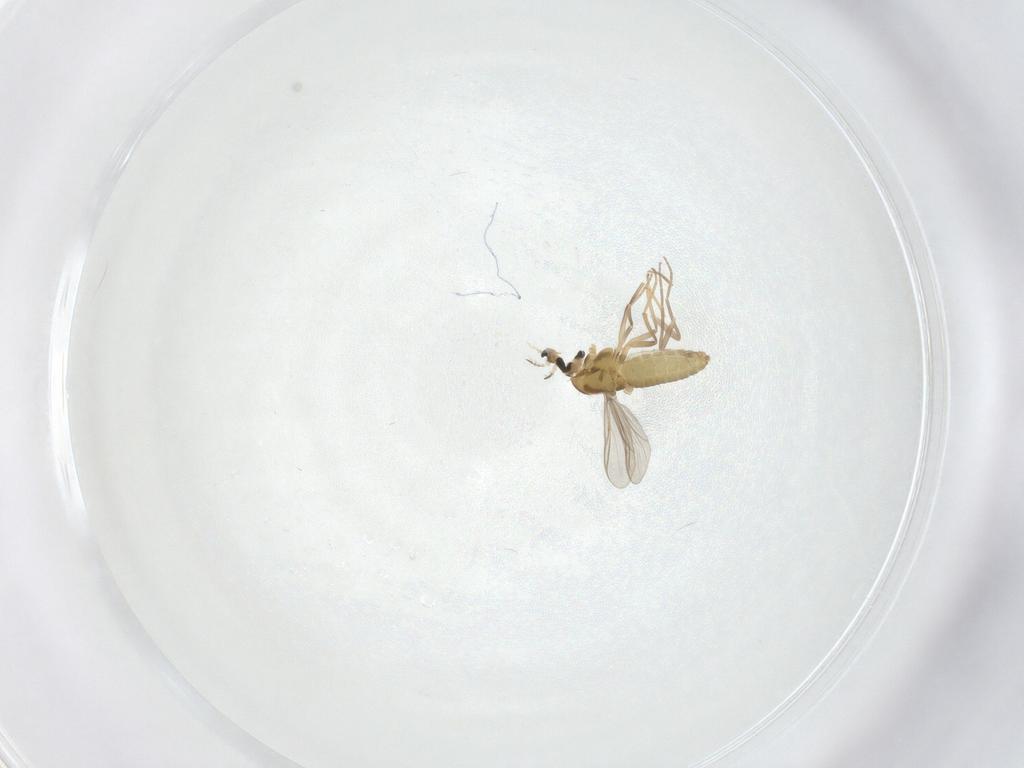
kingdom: Animalia
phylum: Arthropoda
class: Insecta
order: Diptera
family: Chironomidae
